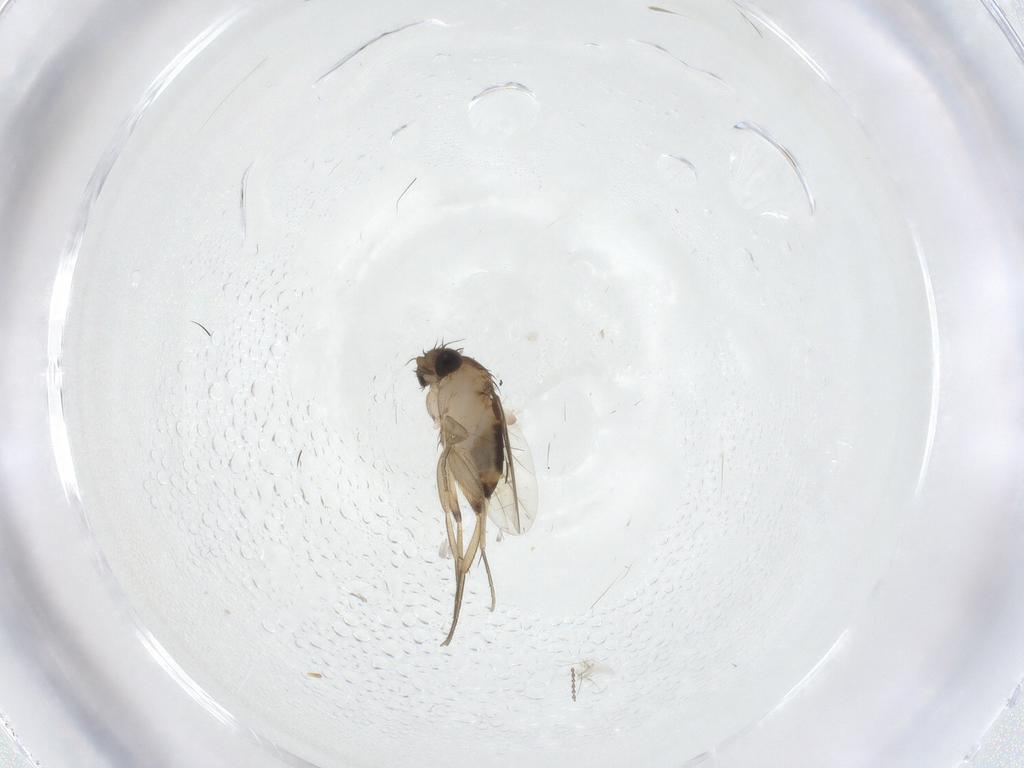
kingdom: Animalia
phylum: Arthropoda
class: Insecta
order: Diptera
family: Phoridae
